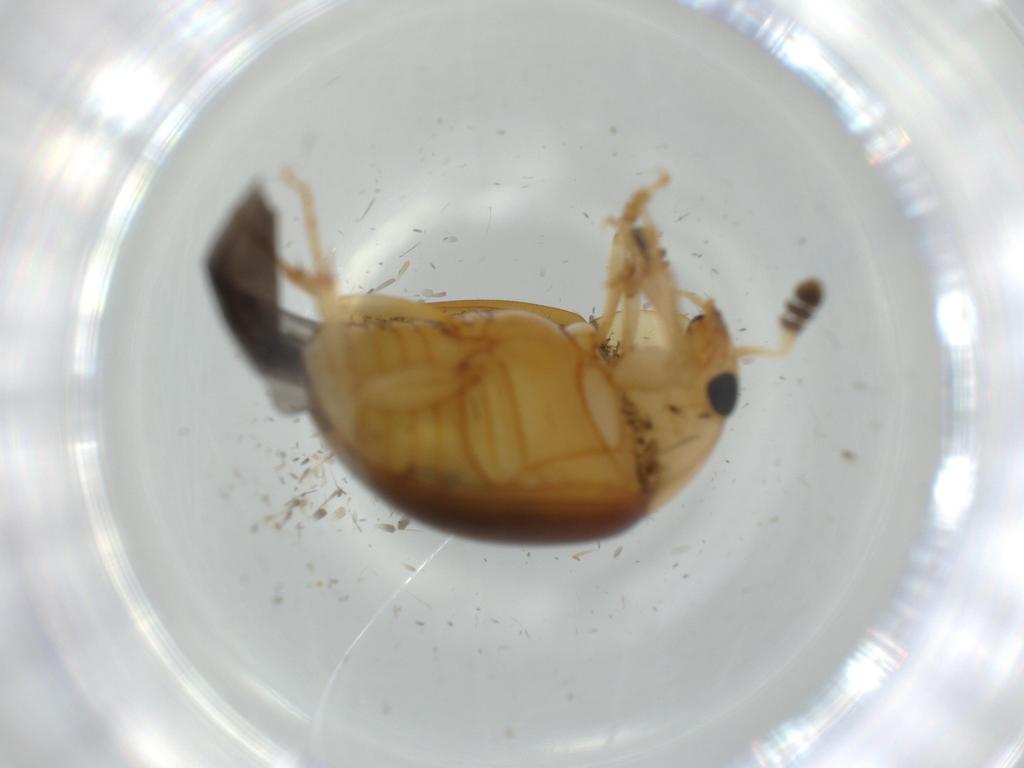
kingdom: Animalia
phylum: Arthropoda
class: Insecta
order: Coleoptera
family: Nitidulidae
